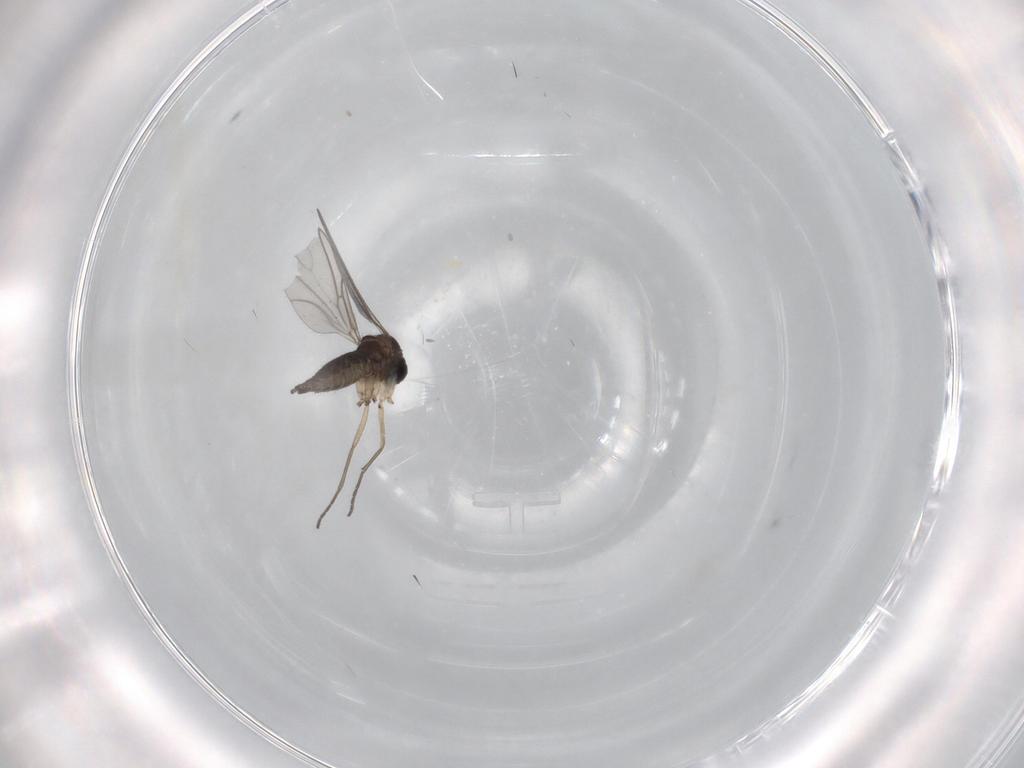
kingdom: Animalia
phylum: Arthropoda
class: Insecta
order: Diptera
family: Sciaridae
